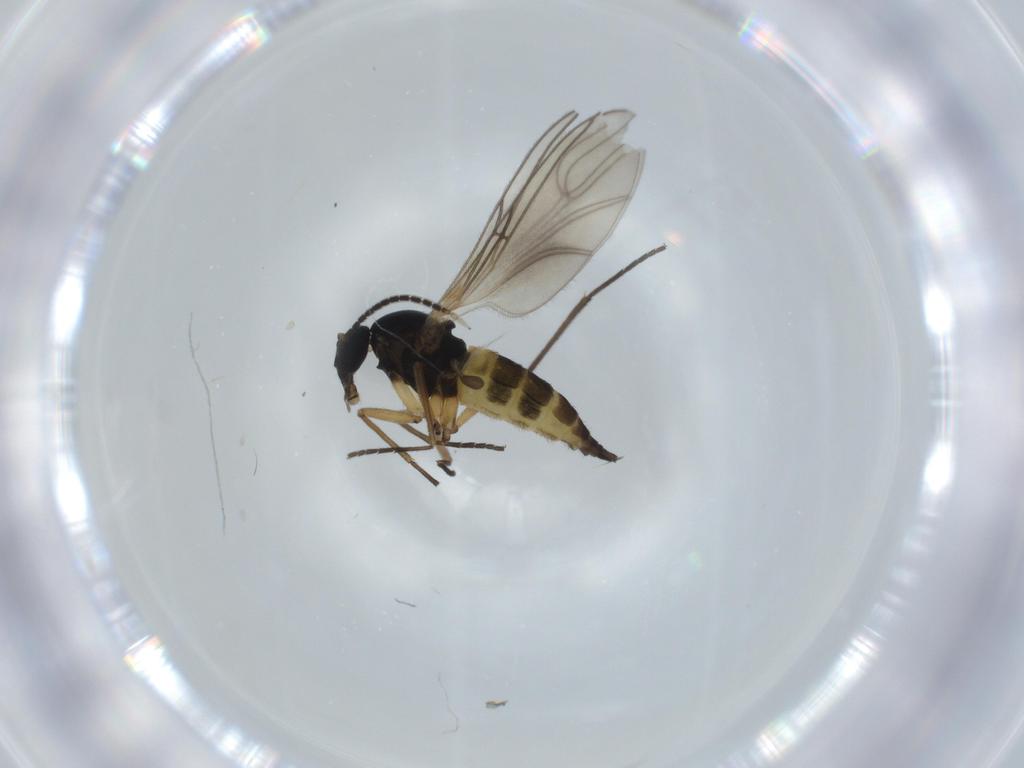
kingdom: Animalia
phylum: Arthropoda
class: Insecta
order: Diptera
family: Sciaridae
